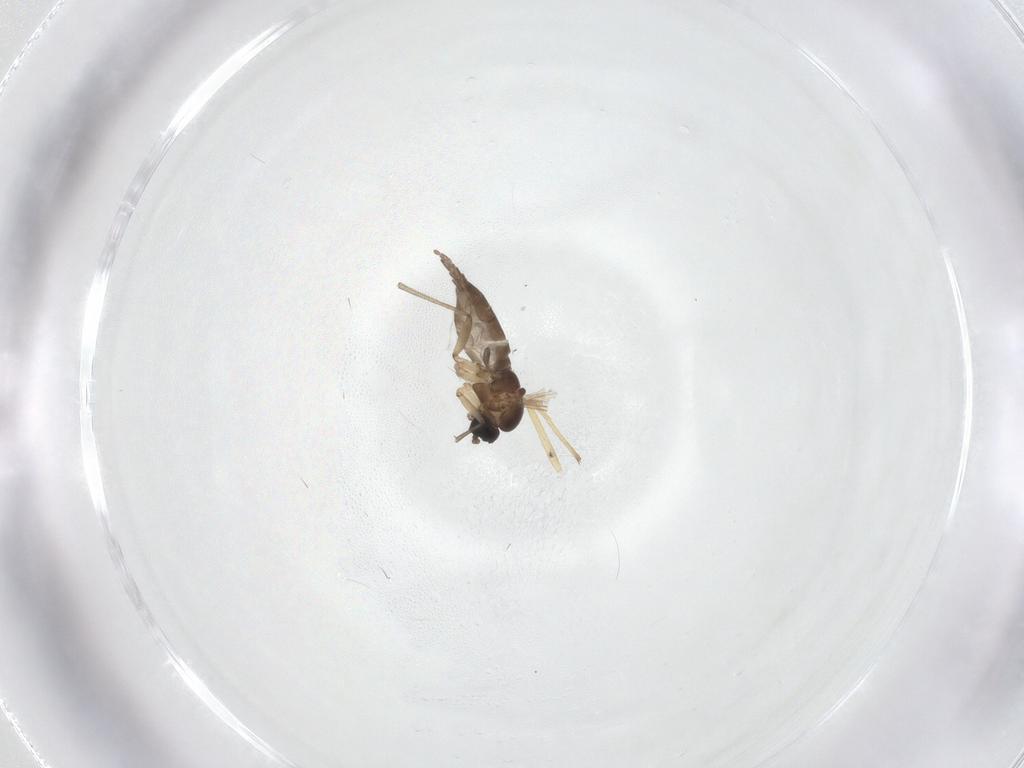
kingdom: Animalia
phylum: Arthropoda
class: Insecta
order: Diptera
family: Sciaridae
